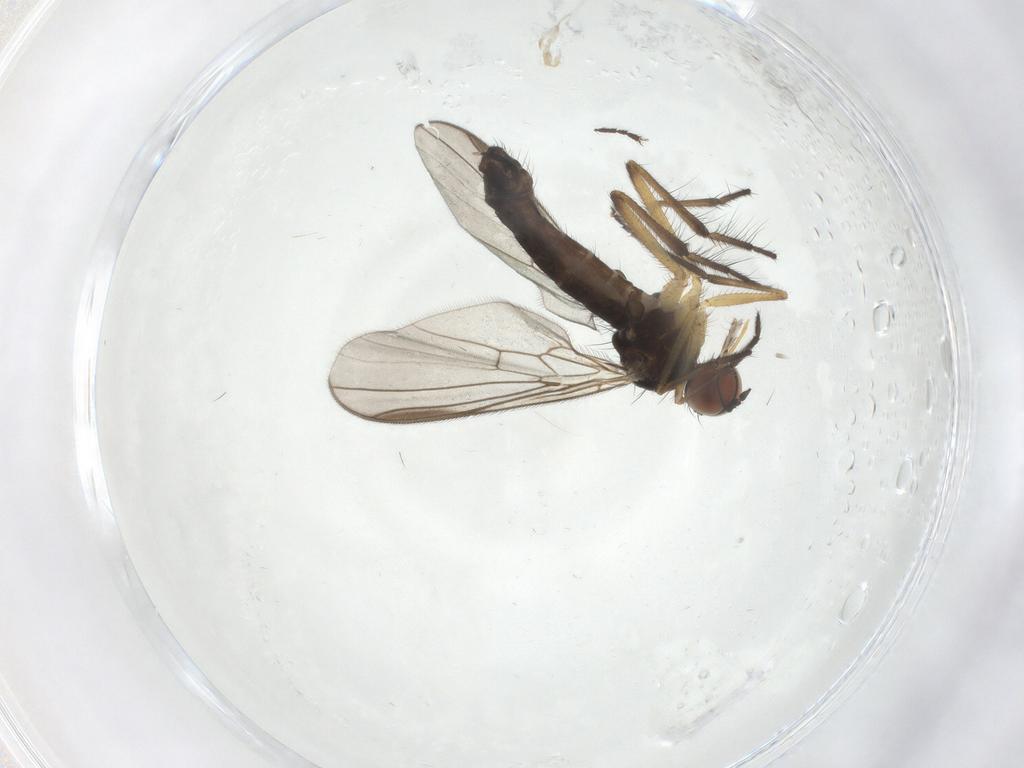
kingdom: Animalia
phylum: Arthropoda
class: Insecta
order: Diptera
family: Empididae
